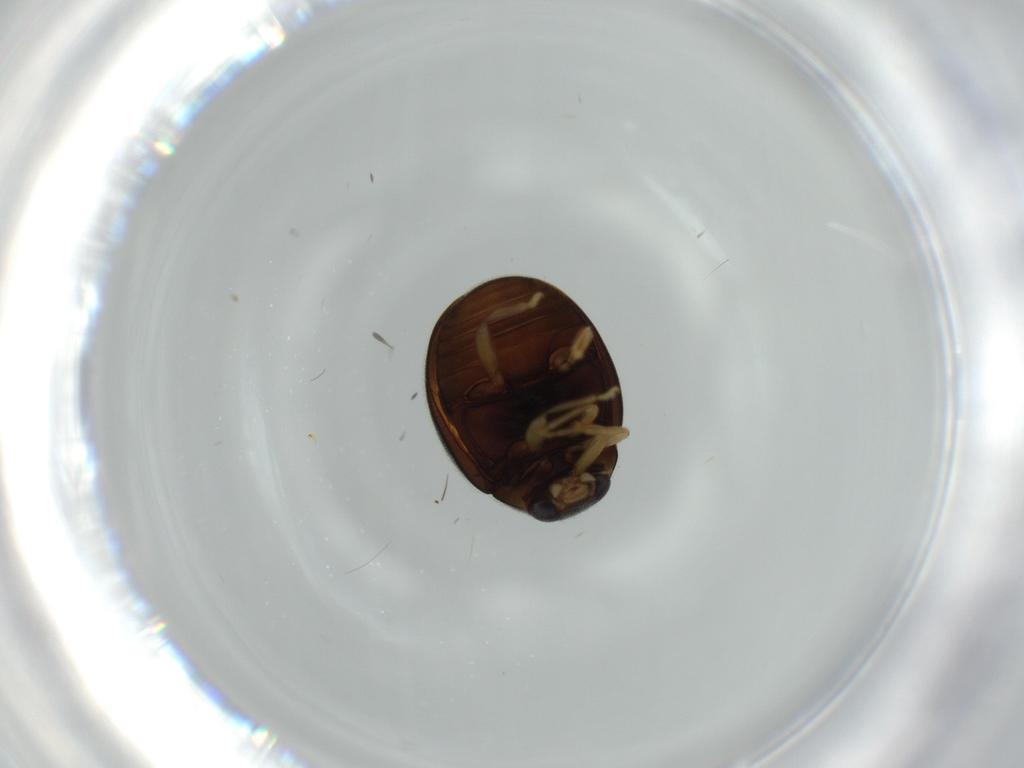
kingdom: Animalia
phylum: Arthropoda
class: Insecta
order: Coleoptera
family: Coccinellidae
